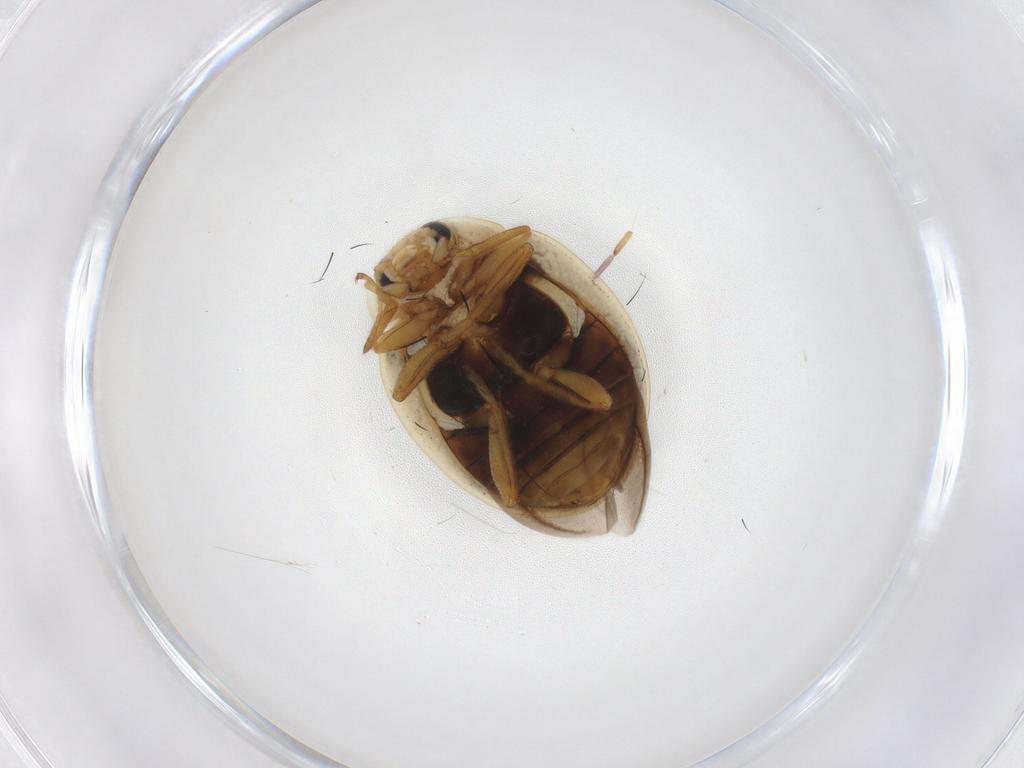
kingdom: Animalia
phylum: Arthropoda
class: Insecta
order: Coleoptera
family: Coccinellidae
